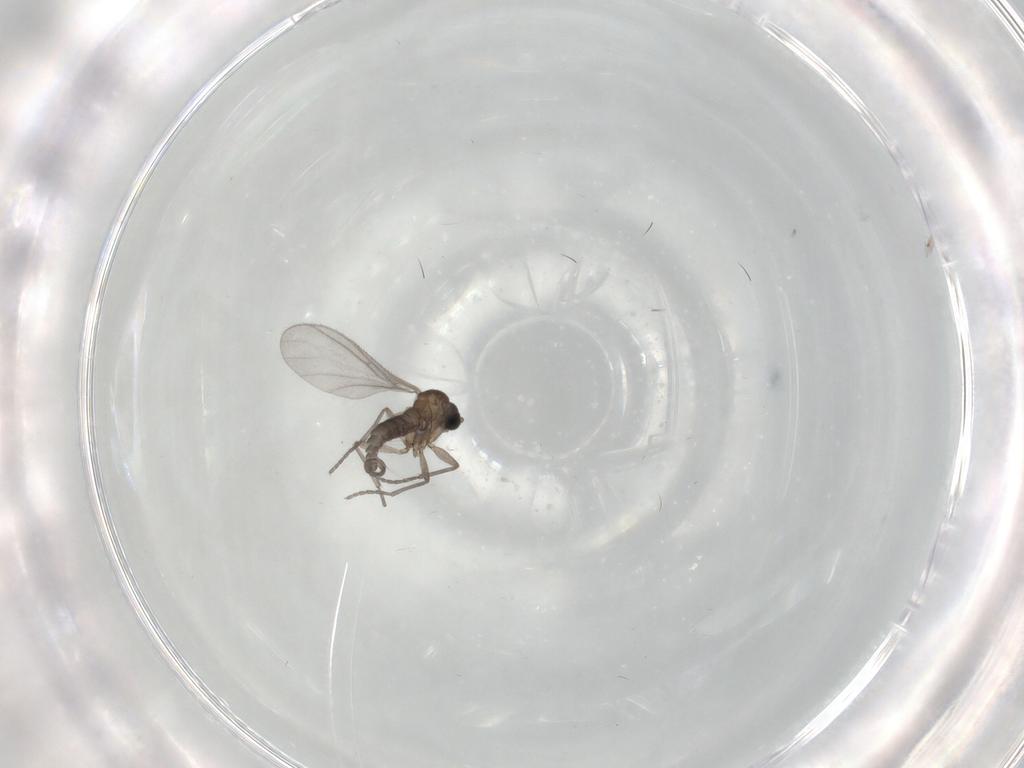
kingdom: Animalia
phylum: Arthropoda
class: Insecta
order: Diptera
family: Sciaridae
